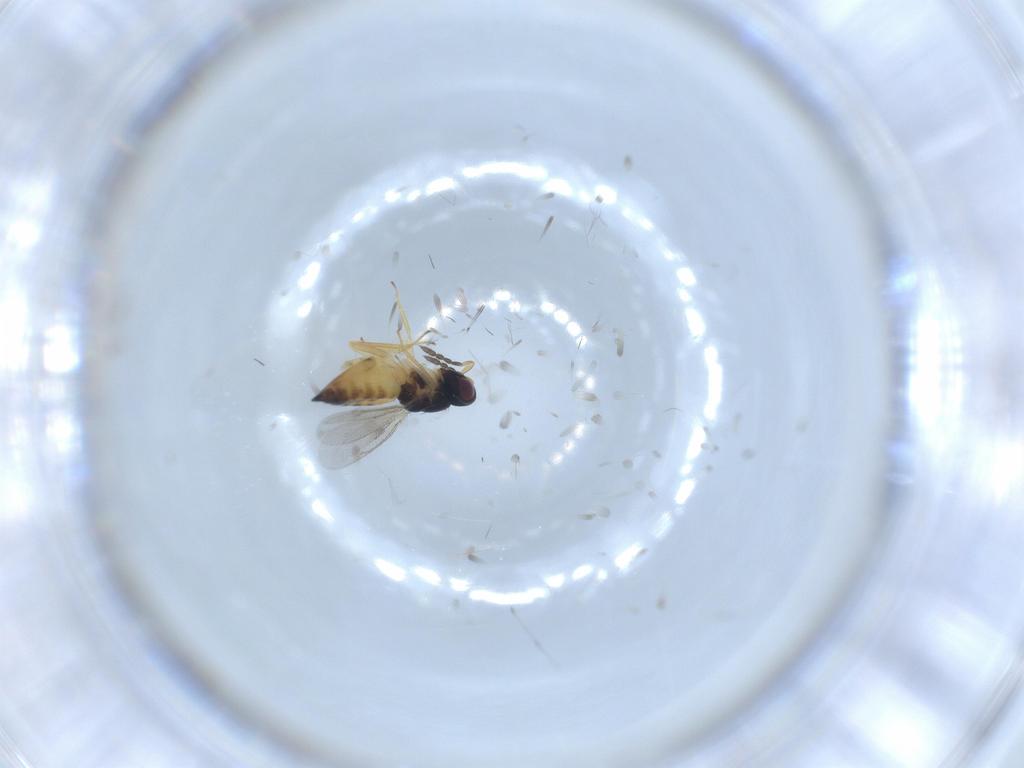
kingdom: Animalia
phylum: Arthropoda
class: Insecta
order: Hymenoptera
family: Eulophidae
